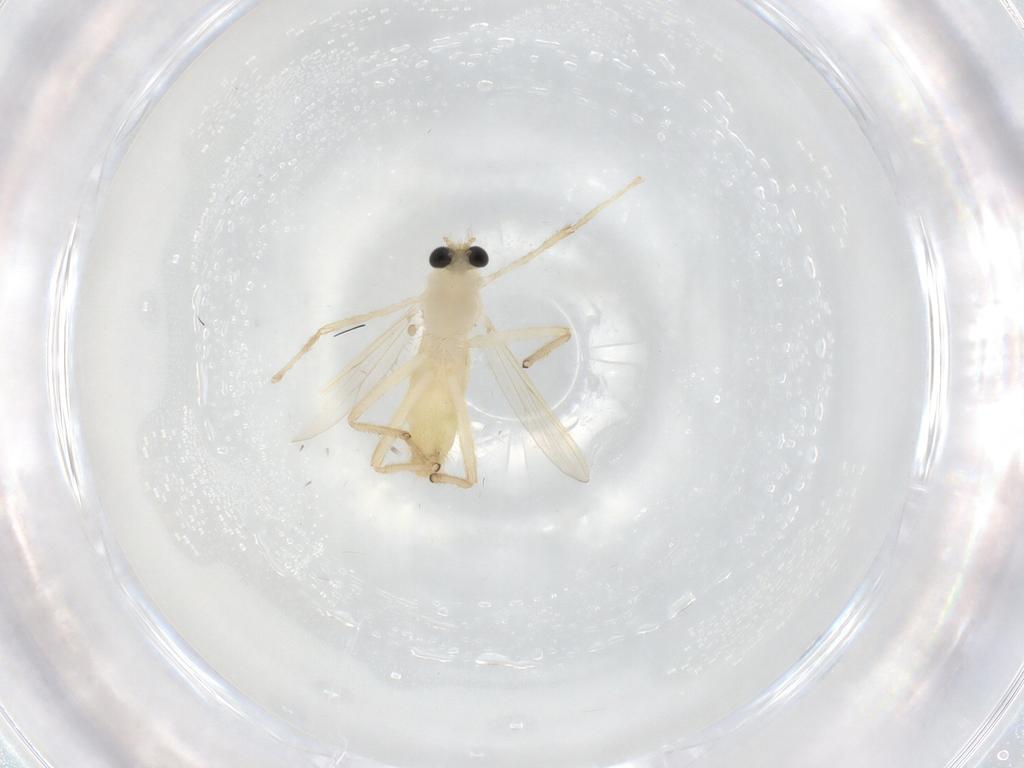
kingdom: Animalia
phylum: Arthropoda
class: Insecta
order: Diptera
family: Chironomidae
